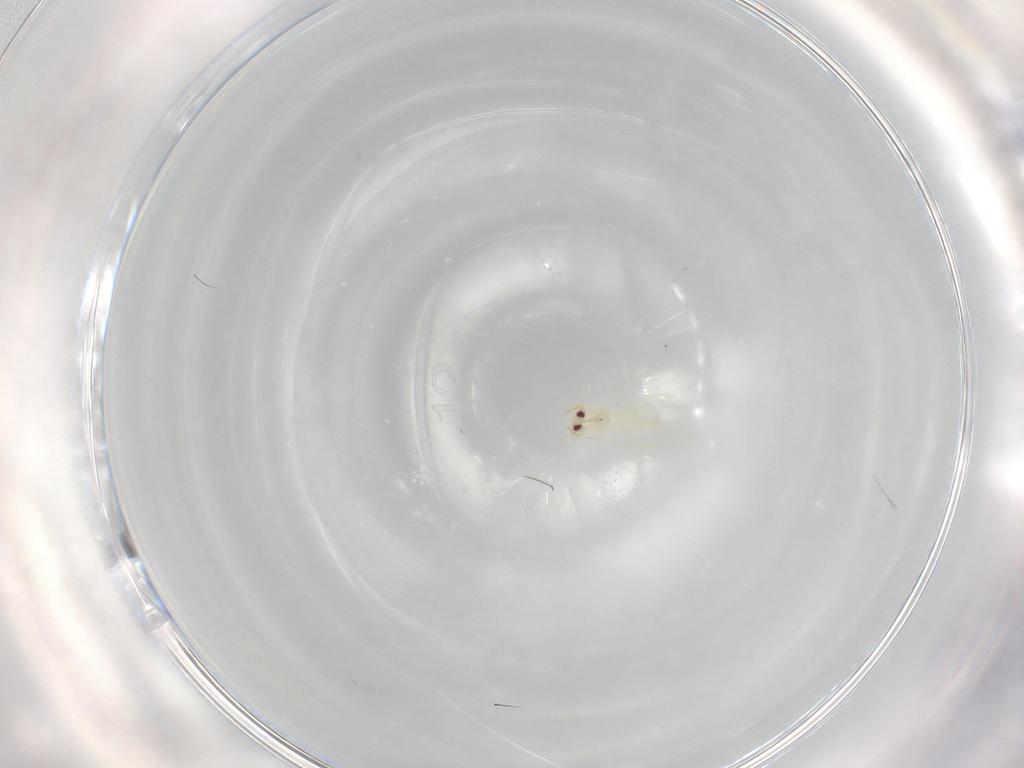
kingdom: Animalia
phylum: Arthropoda
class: Insecta
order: Hemiptera
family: Aleyrodidae
